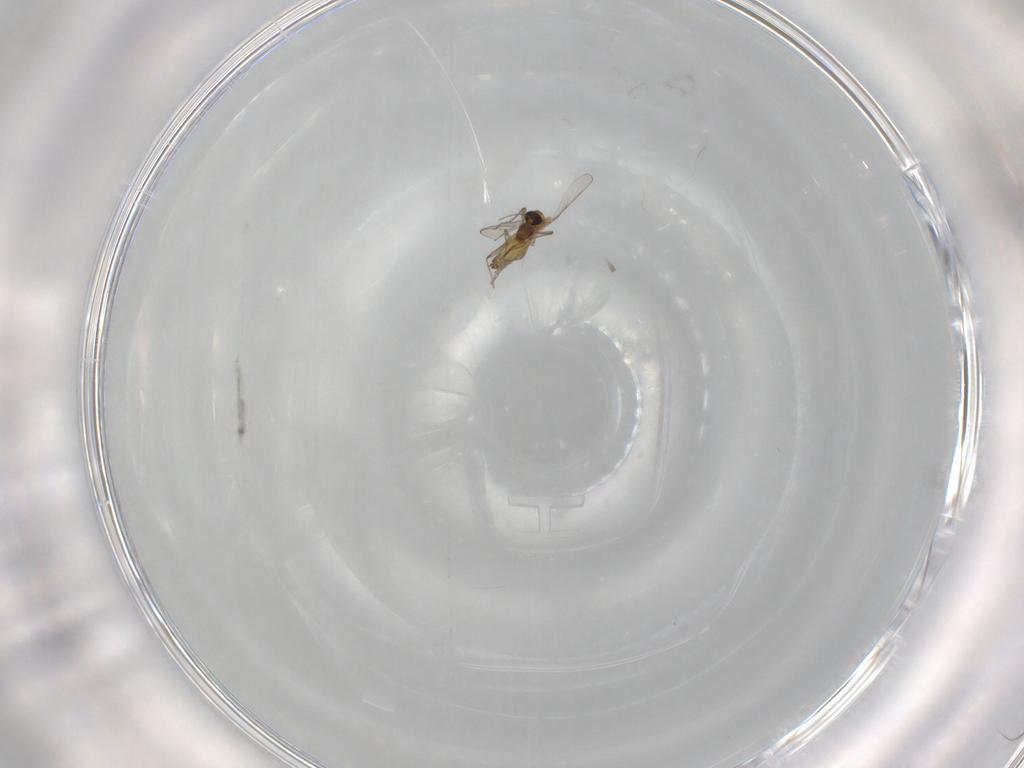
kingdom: Animalia
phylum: Arthropoda
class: Insecta
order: Diptera
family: Chironomidae
